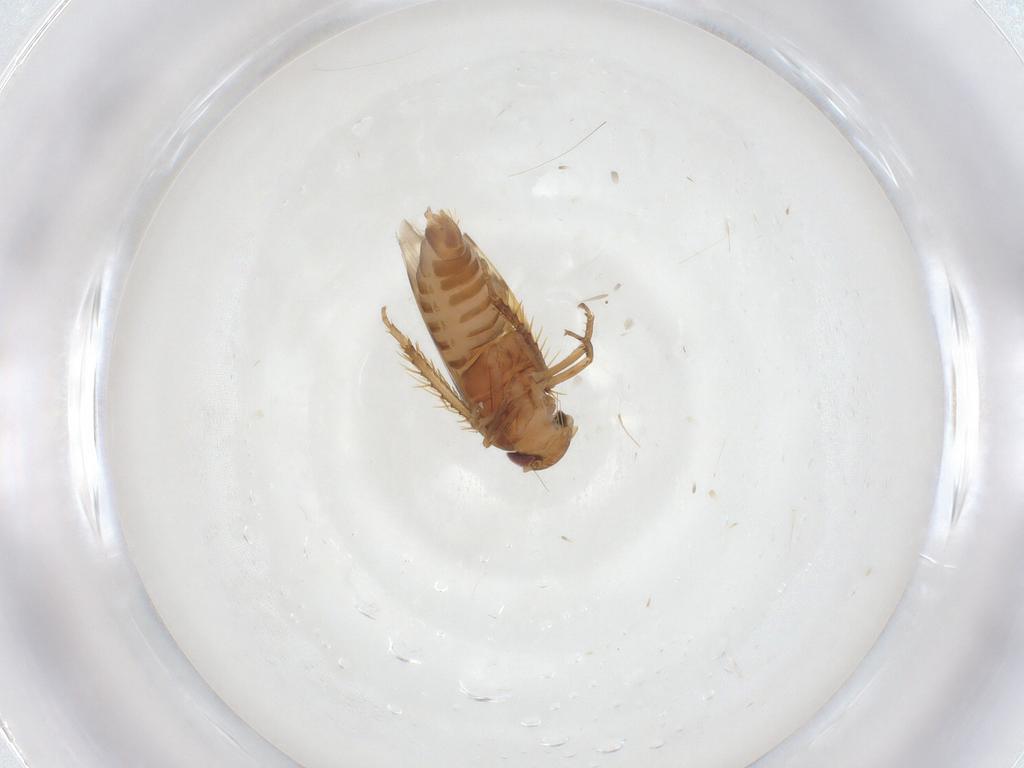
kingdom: Animalia
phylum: Arthropoda
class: Insecta
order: Hemiptera
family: Cicadellidae
